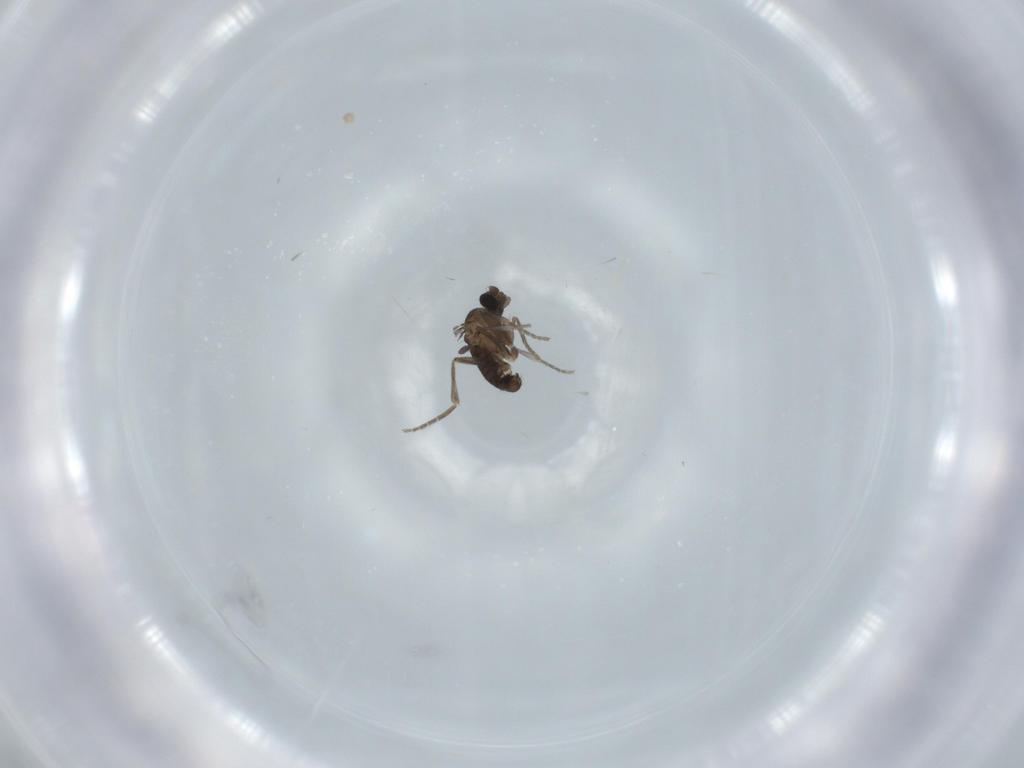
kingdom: Animalia
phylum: Arthropoda
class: Insecta
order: Diptera
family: Phoridae
